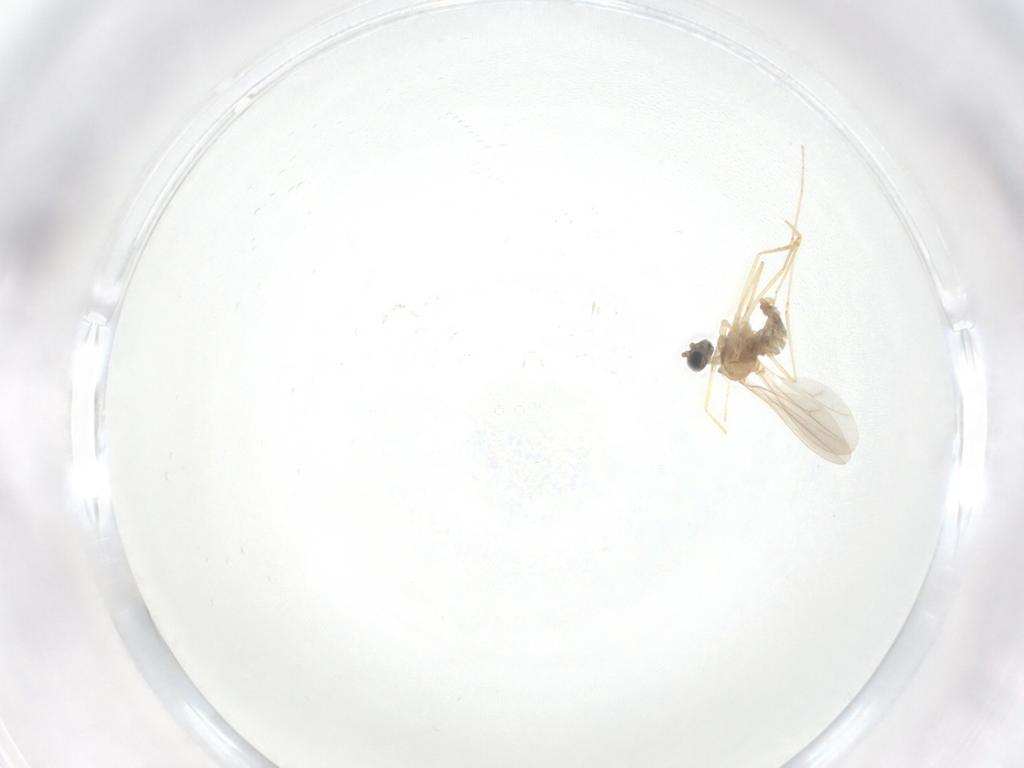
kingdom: Animalia
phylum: Arthropoda
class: Insecta
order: Diptera
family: Cecidomyiidae
